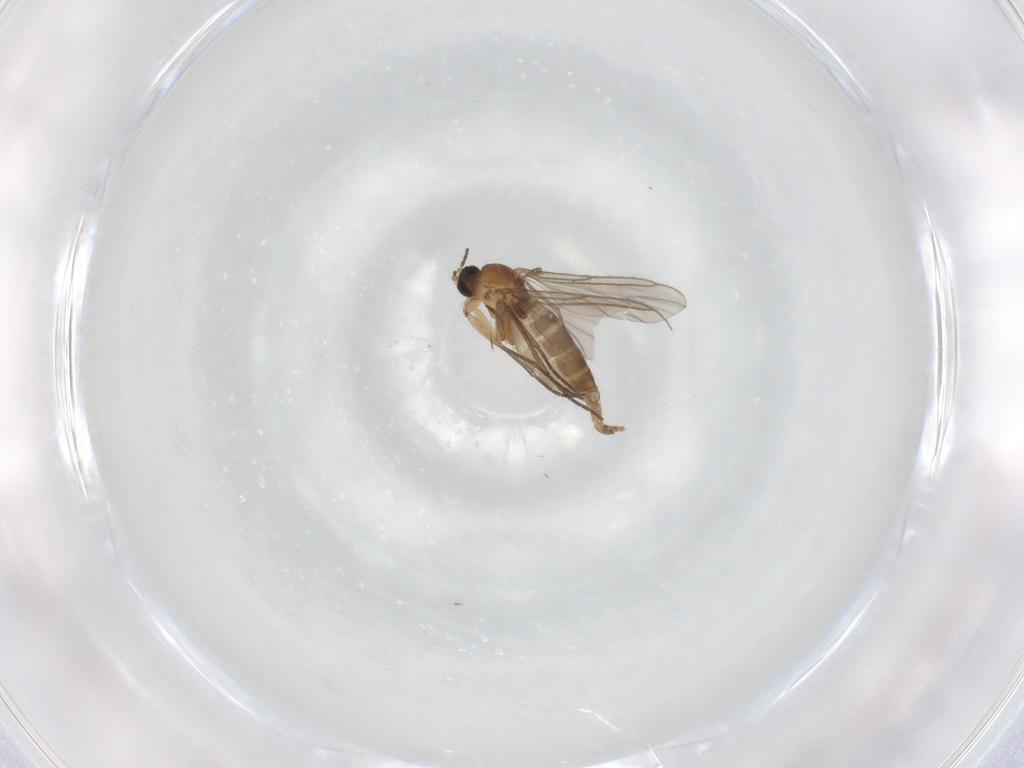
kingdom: Animalia
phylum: Arthropoda
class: Insecta
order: Diptera
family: Sciaridae
